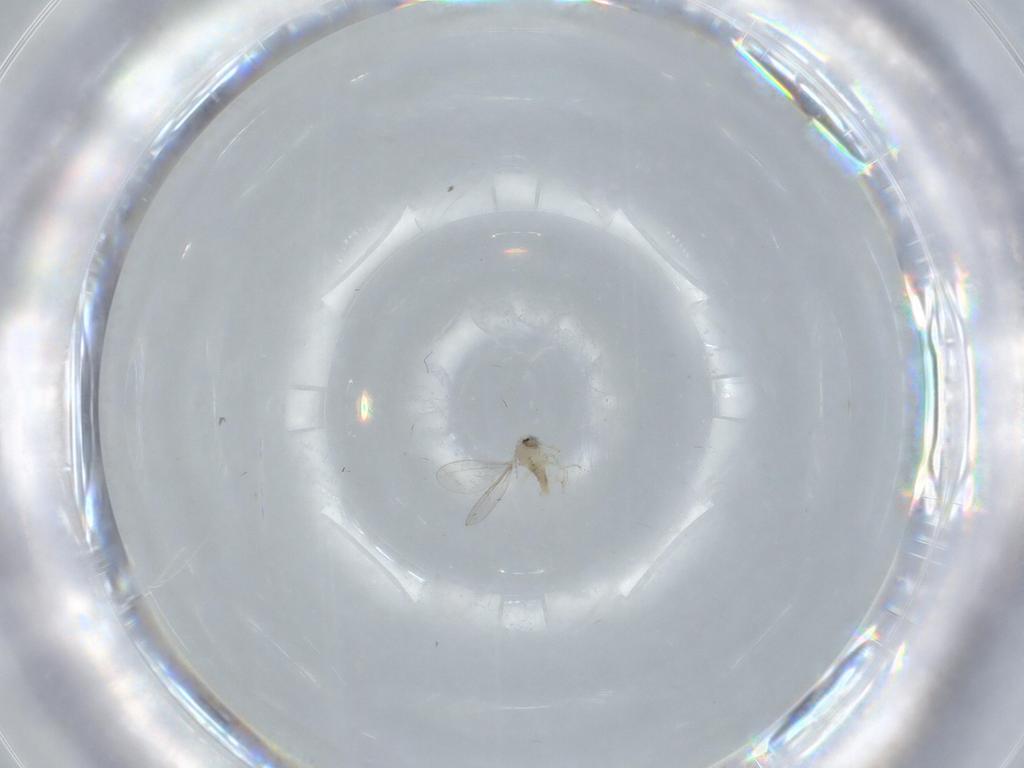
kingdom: Animalia
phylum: Arthropoda
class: Insecta
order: Diptera
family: Cecidomyiidae
